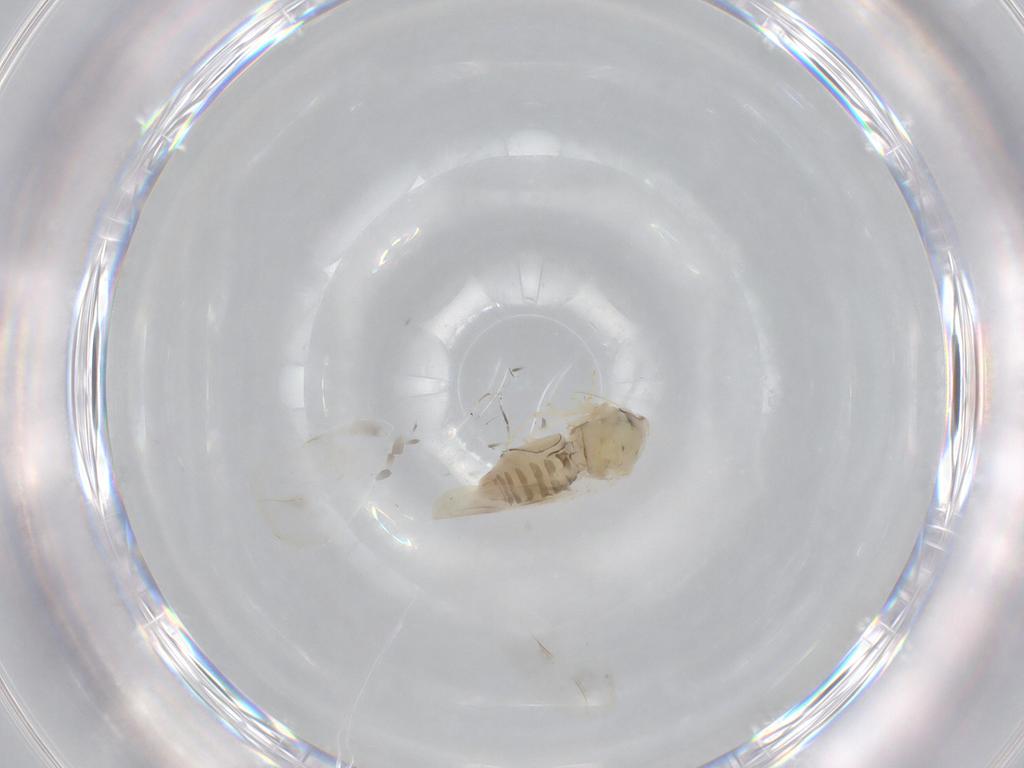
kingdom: Animalia
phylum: Arthropoda
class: Insecta
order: Hemiptera
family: Aleyrodidae
